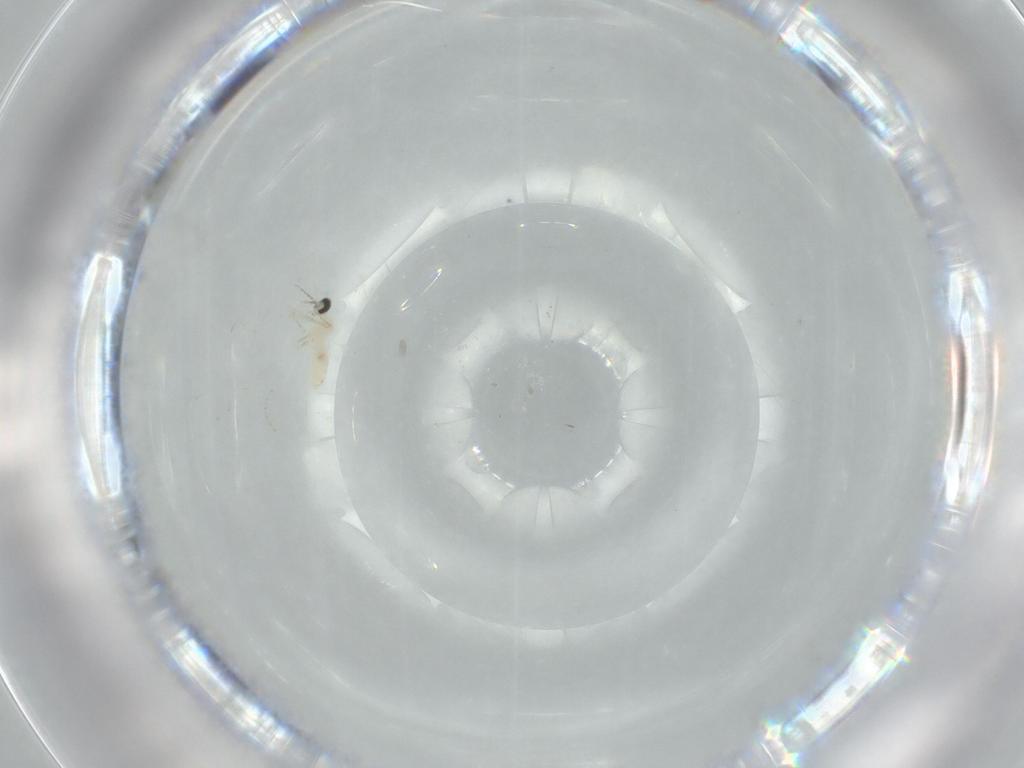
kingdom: Animalia
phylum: Arthropoda
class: Insecta
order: Diptera
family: Cecidomyiidae
